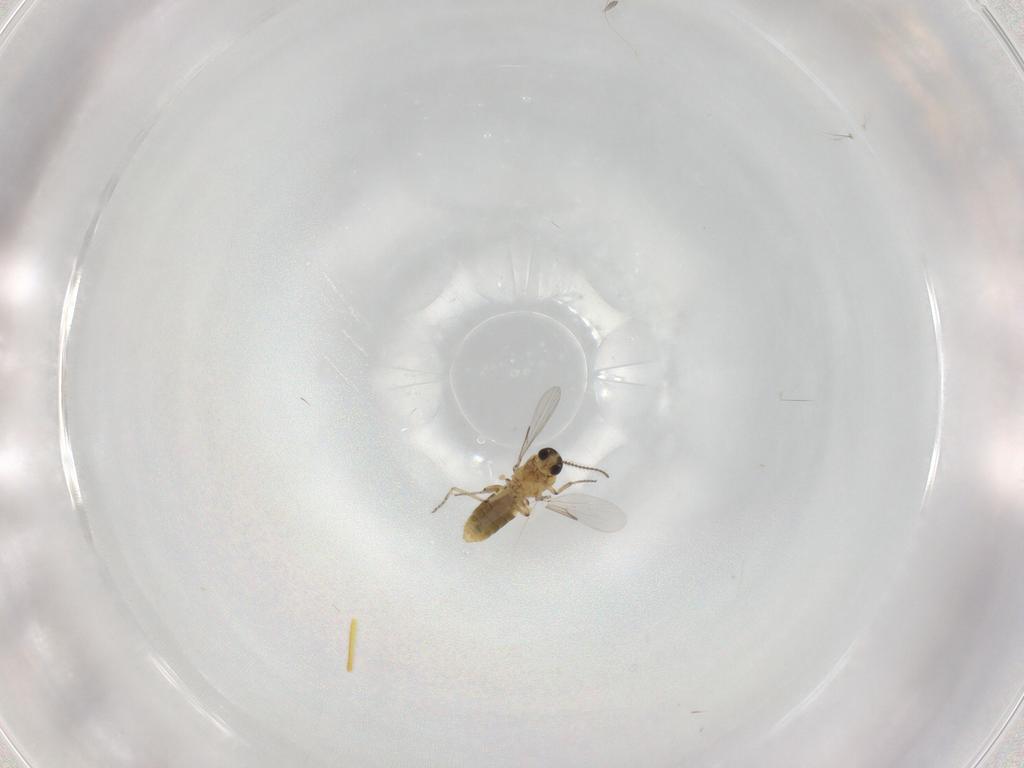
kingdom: Animalia
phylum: Arthropoda
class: Insecta
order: Diptera
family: Ceratopogonidae
